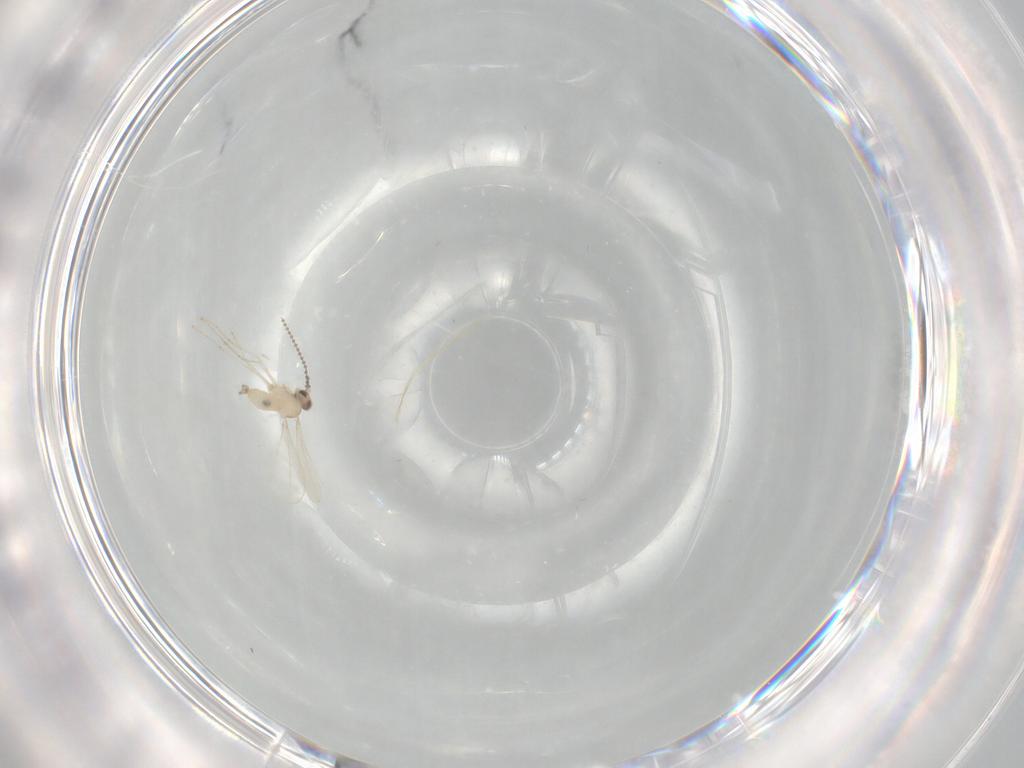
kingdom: Animalia
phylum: Arthropoda
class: Insecta
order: Diptera
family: Cecidomyiidae
